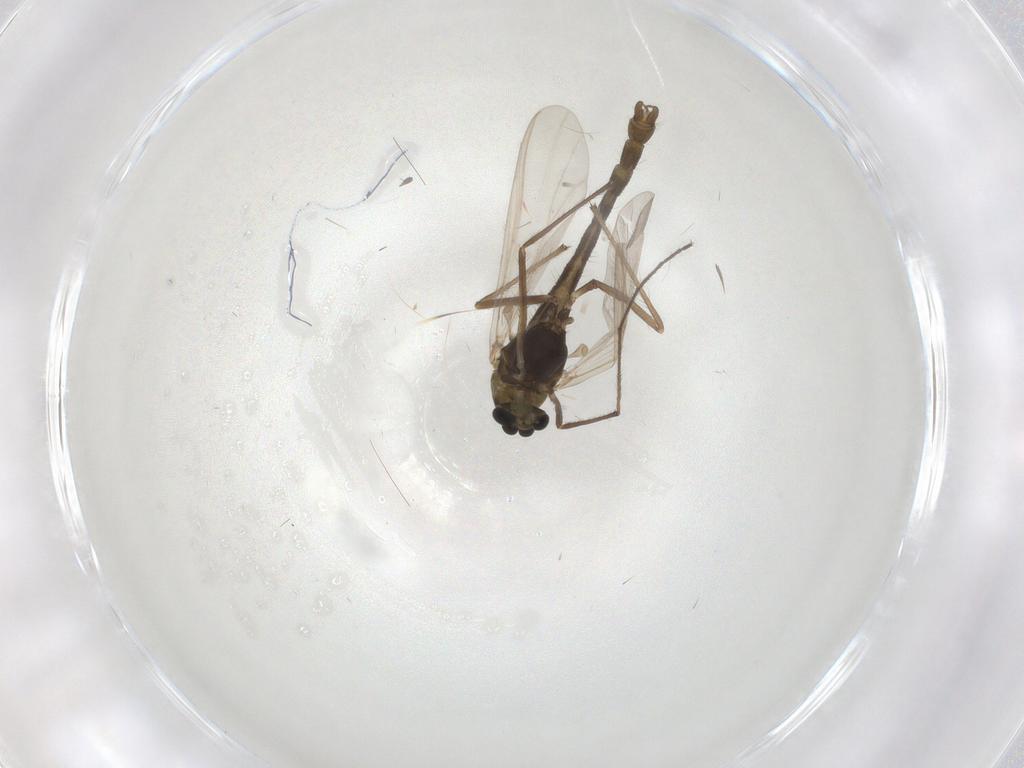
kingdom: Animalia
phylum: Arthropoda
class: Insecta
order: Diptera
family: Chironomidae
